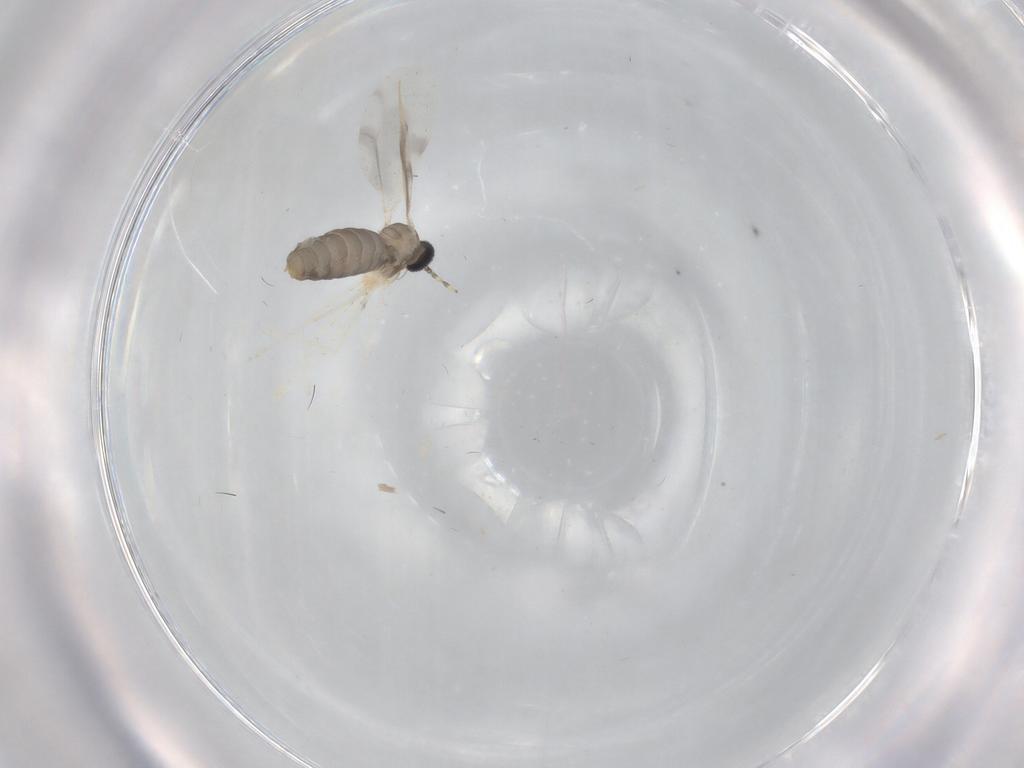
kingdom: Animalia
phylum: Arthropoda
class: Insecta
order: Diptera
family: Cecidomyiidae
